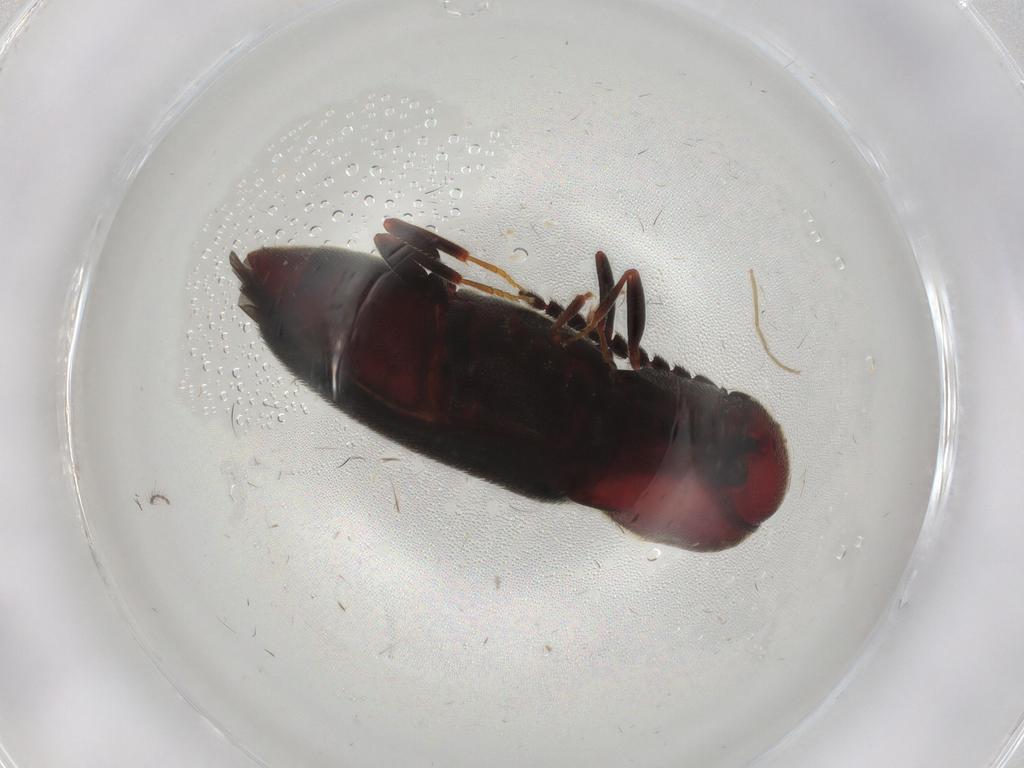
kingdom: Animalia
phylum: Arthropoda
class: Insecta
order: Coleoptera
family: Eucnemidae
